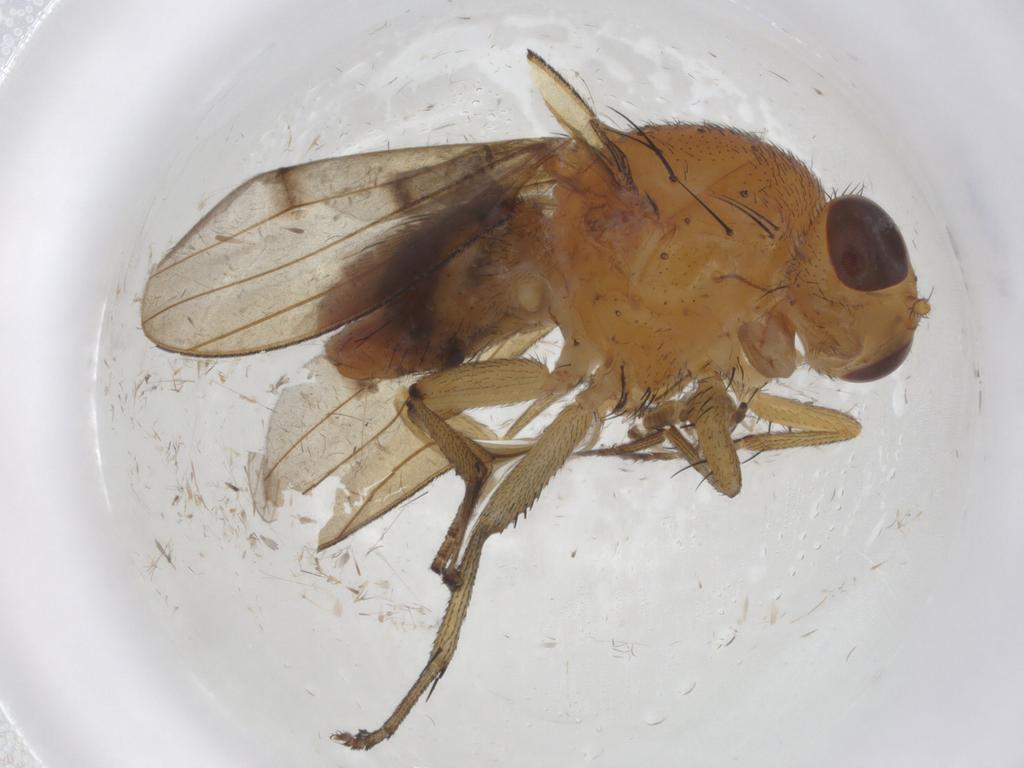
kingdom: Animalia
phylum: Arthropoda
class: Insecta
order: Diptera
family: Chironomidae
